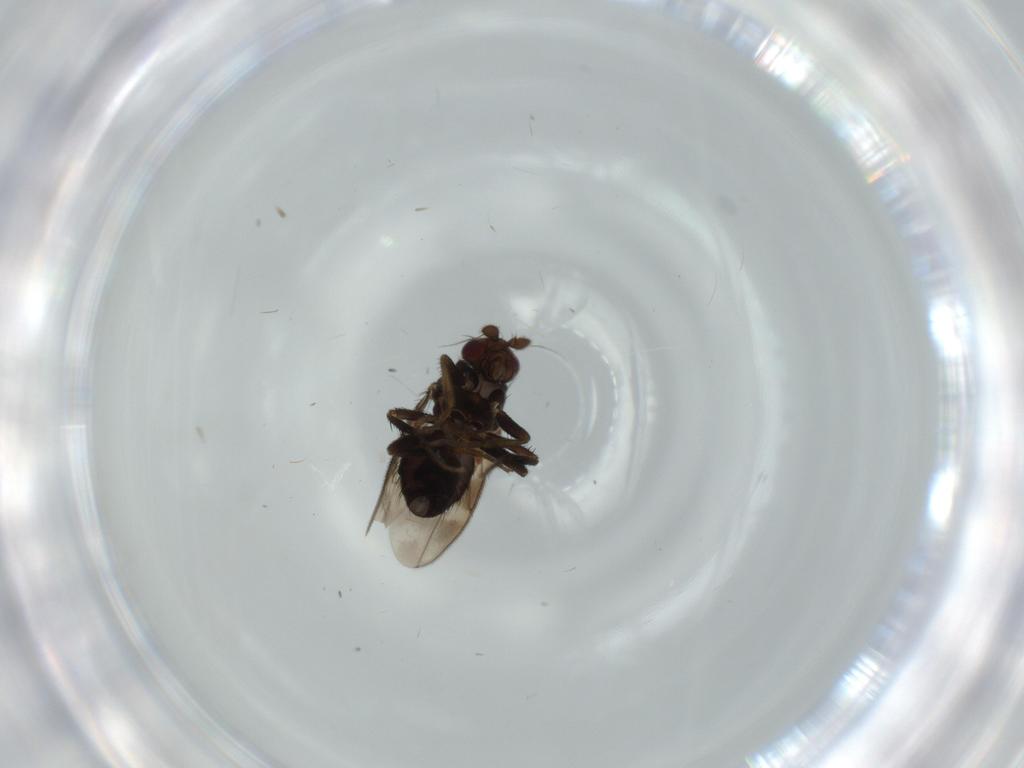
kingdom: Animalia
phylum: Arthropoda
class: Insecta
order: Diptera
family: Sphaeroceridae
